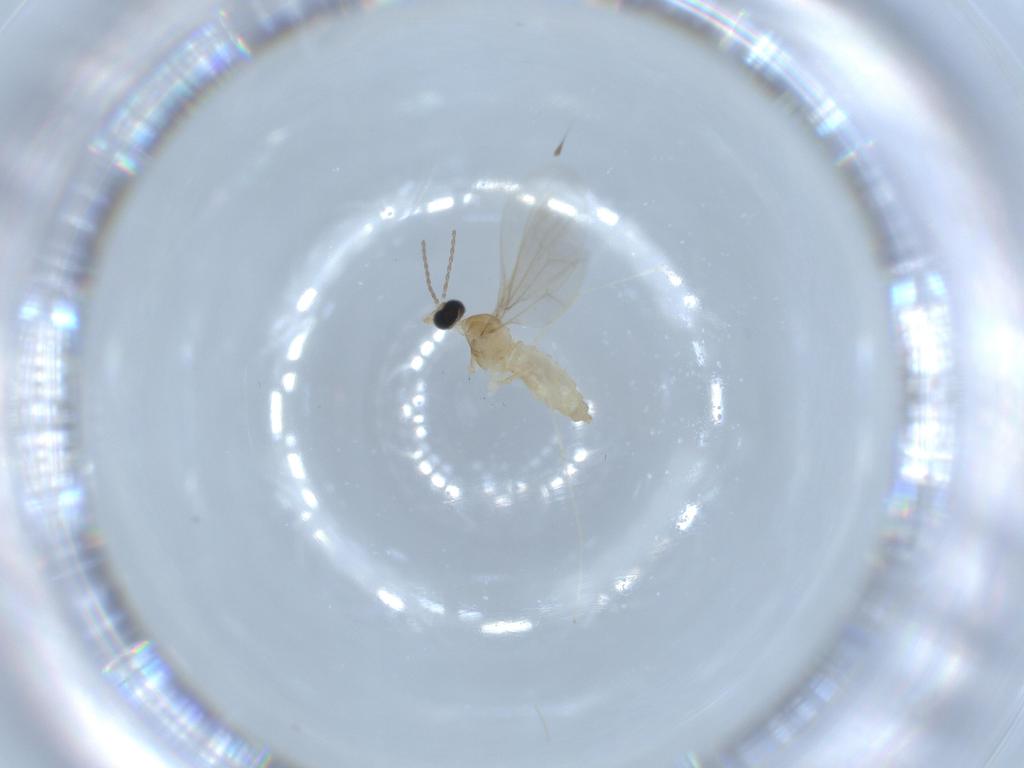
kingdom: Animalia
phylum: Arthropoda
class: Insecta
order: Diptera
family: Cecidomyiidae
